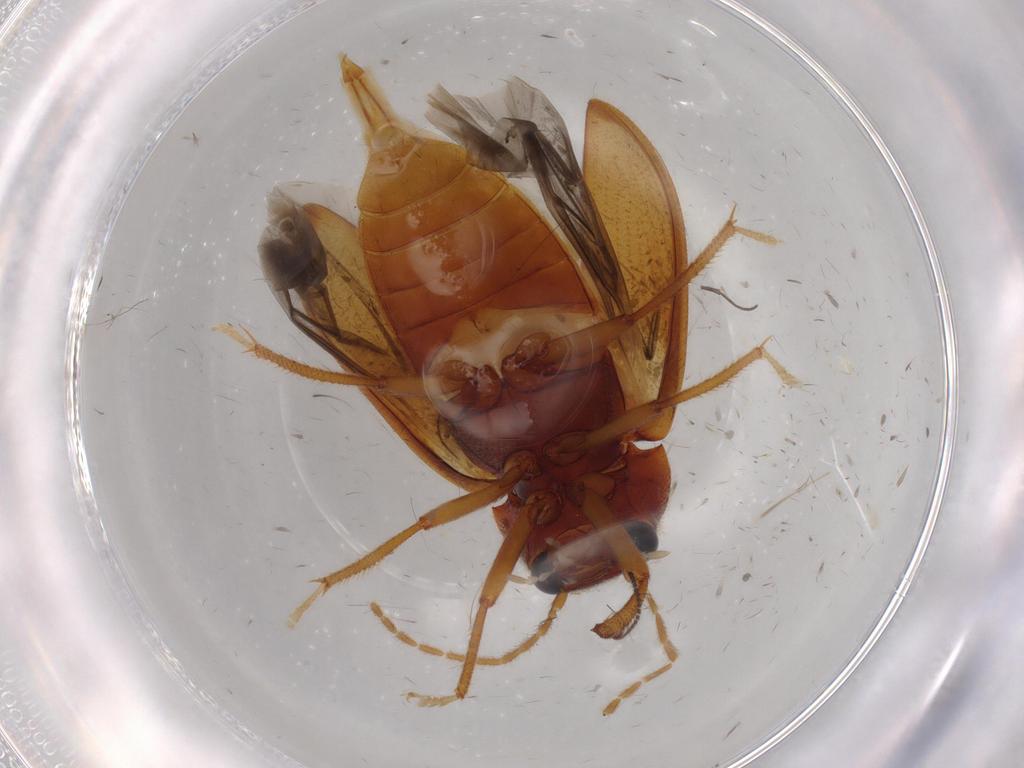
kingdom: Animalia
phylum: Arthropoda
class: Insecta
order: Coleoptera
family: Ptilodactylidae
